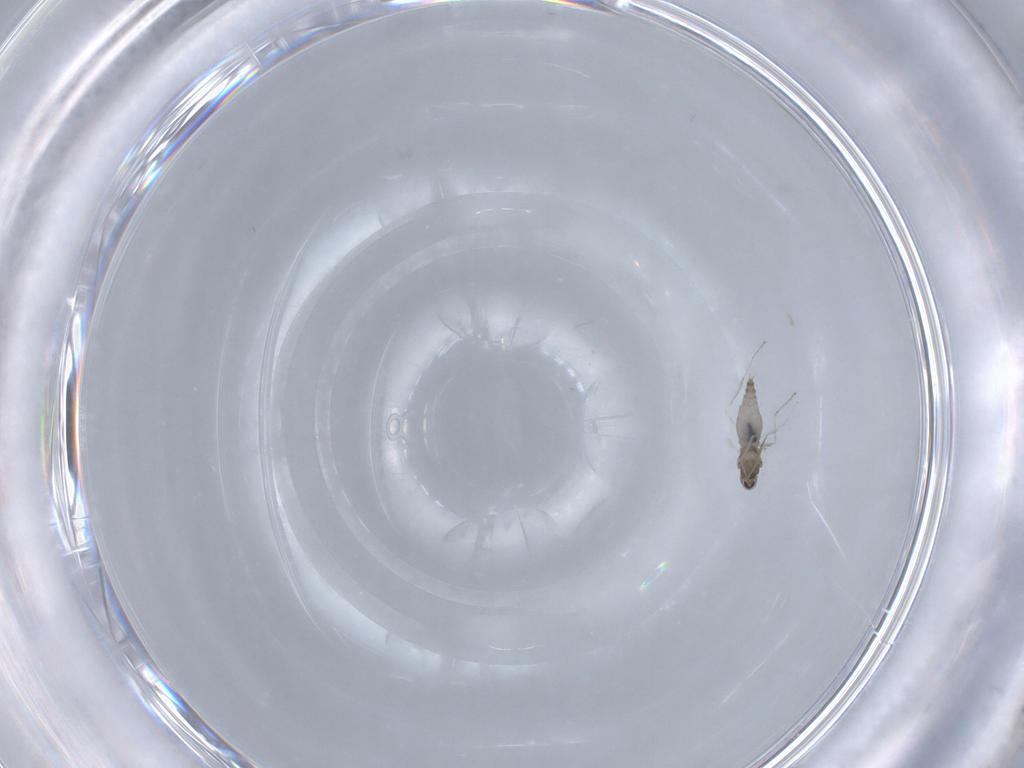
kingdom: Animalia
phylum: Arthropoda
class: Insecta
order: Diptera
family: Cecidomyiidae
